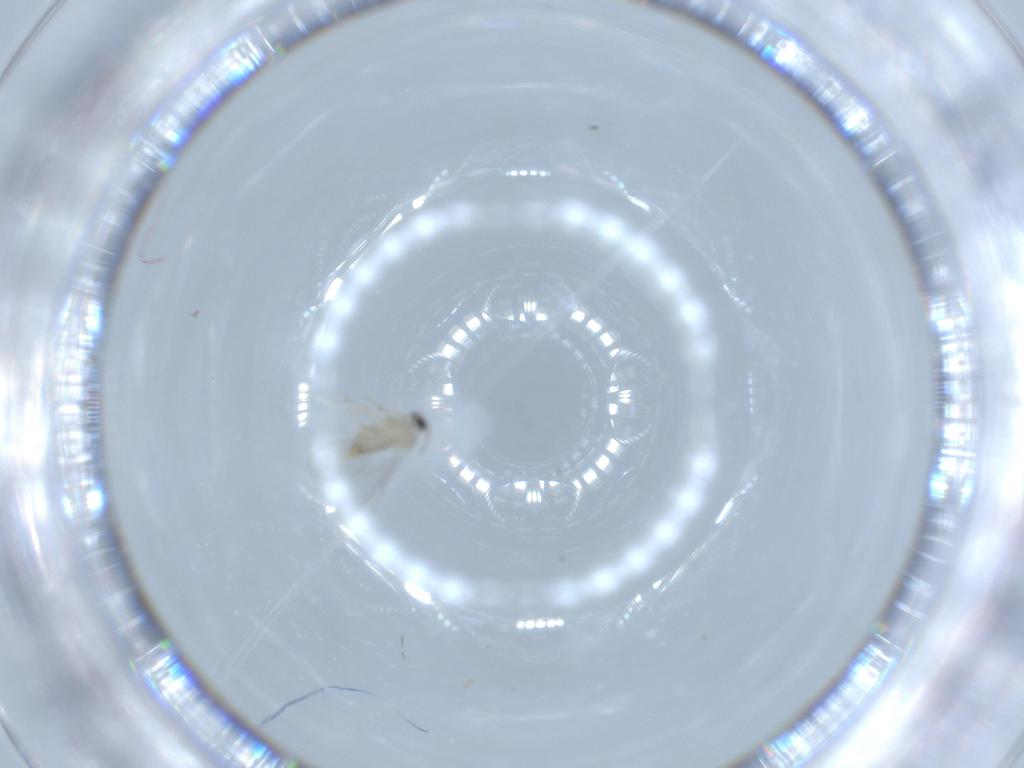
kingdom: Animalia
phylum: Arthropoda
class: Insecta
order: Diptera
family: Cecidomyiidae
